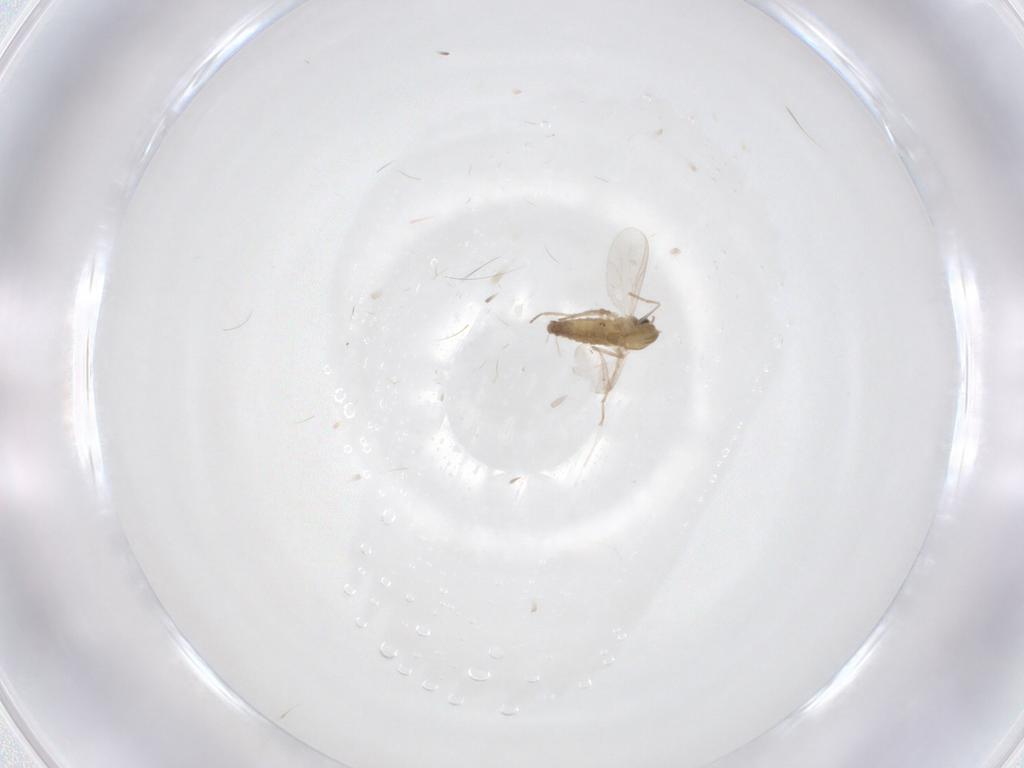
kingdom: Animalia
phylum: Arthropoda
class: Insecta
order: Diptera
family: Chironomidae
